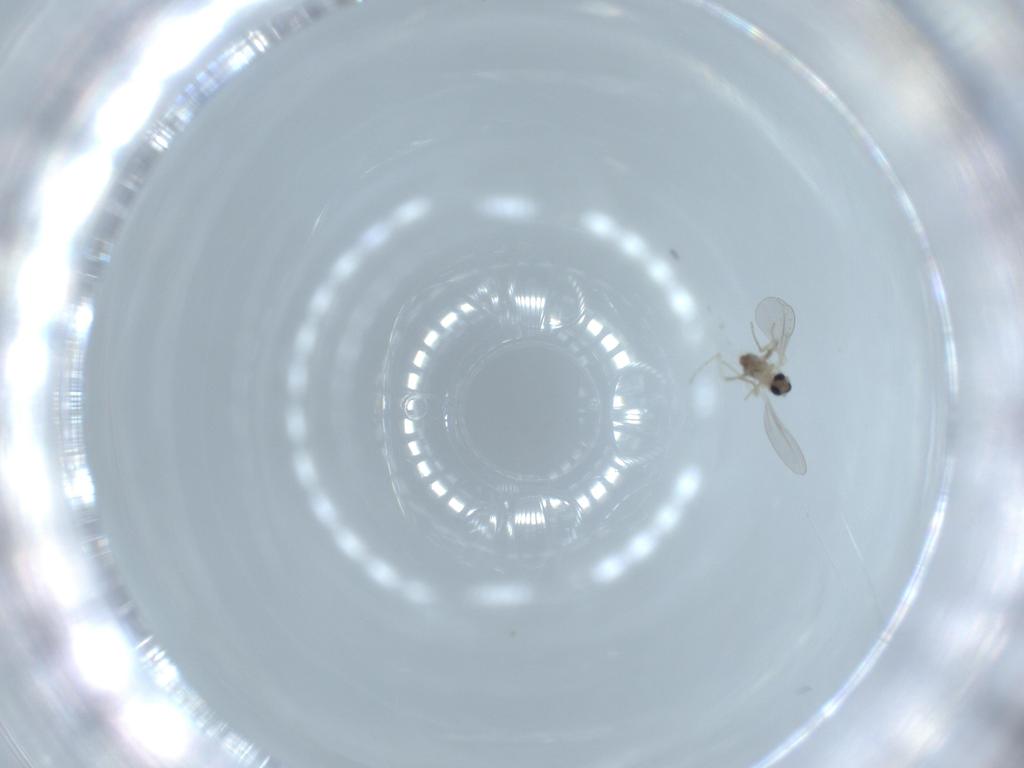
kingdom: Animalia
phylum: Arthropoda
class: Insecta
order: Diptera
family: Cecidomyiidae
